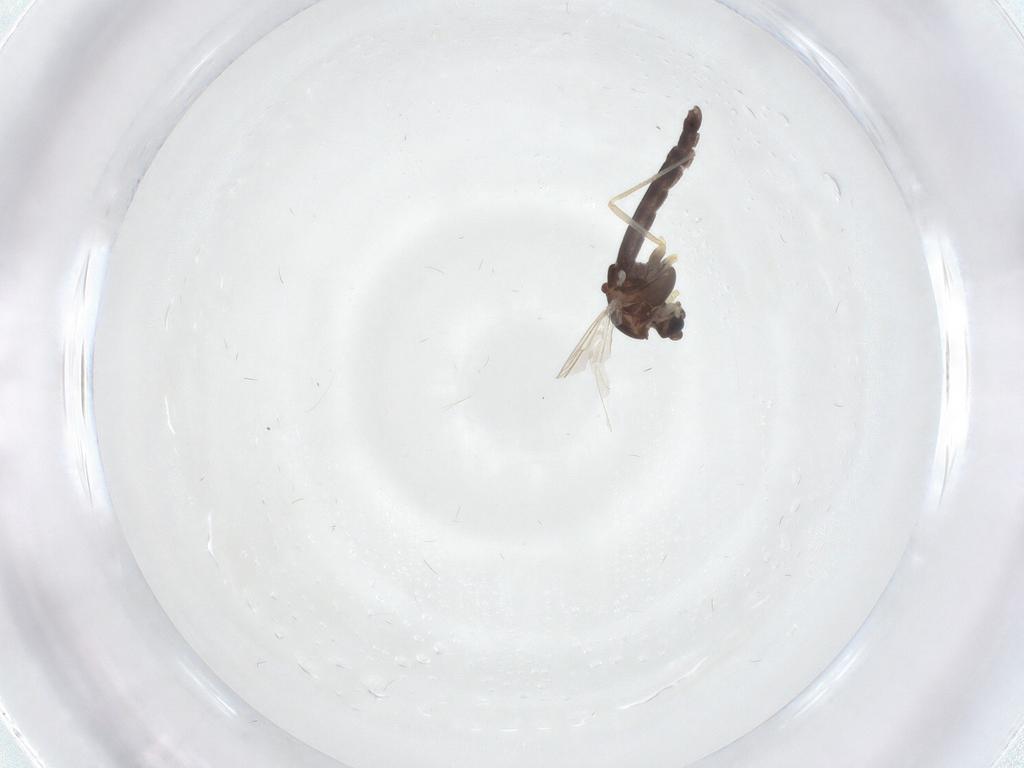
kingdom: Animalia
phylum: Arthropoda
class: Insecta
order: Diptera
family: Chironomidae
